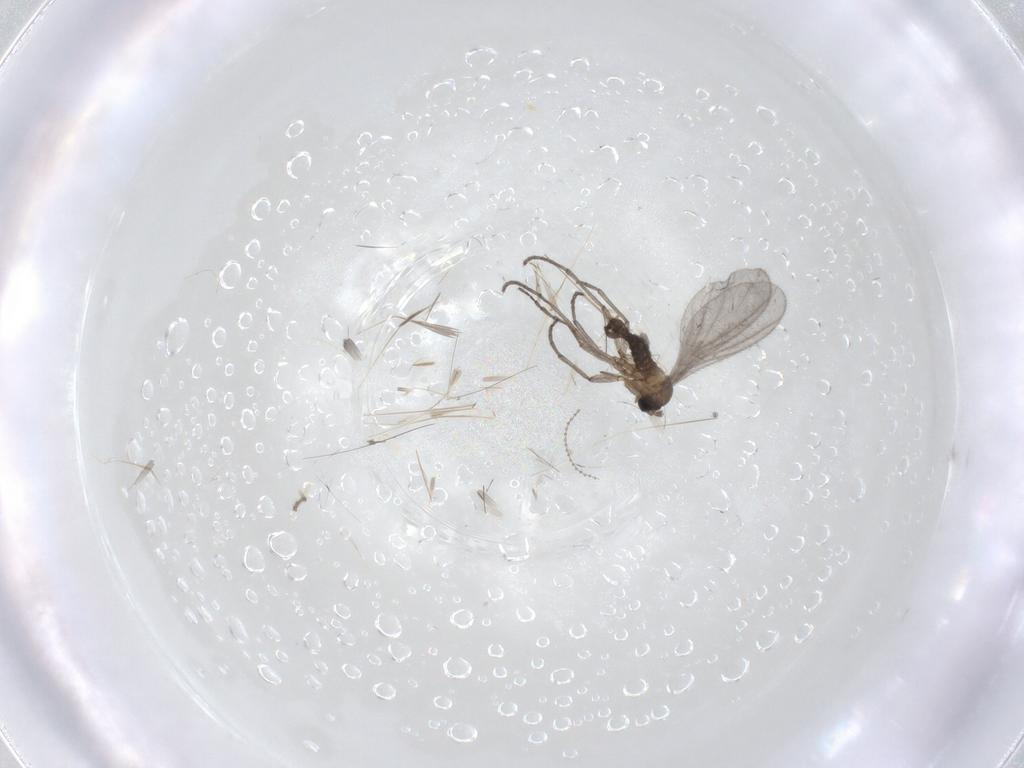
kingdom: Animalia
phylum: Arthropoda
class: Insecta
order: Diptera
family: Sciaridae
